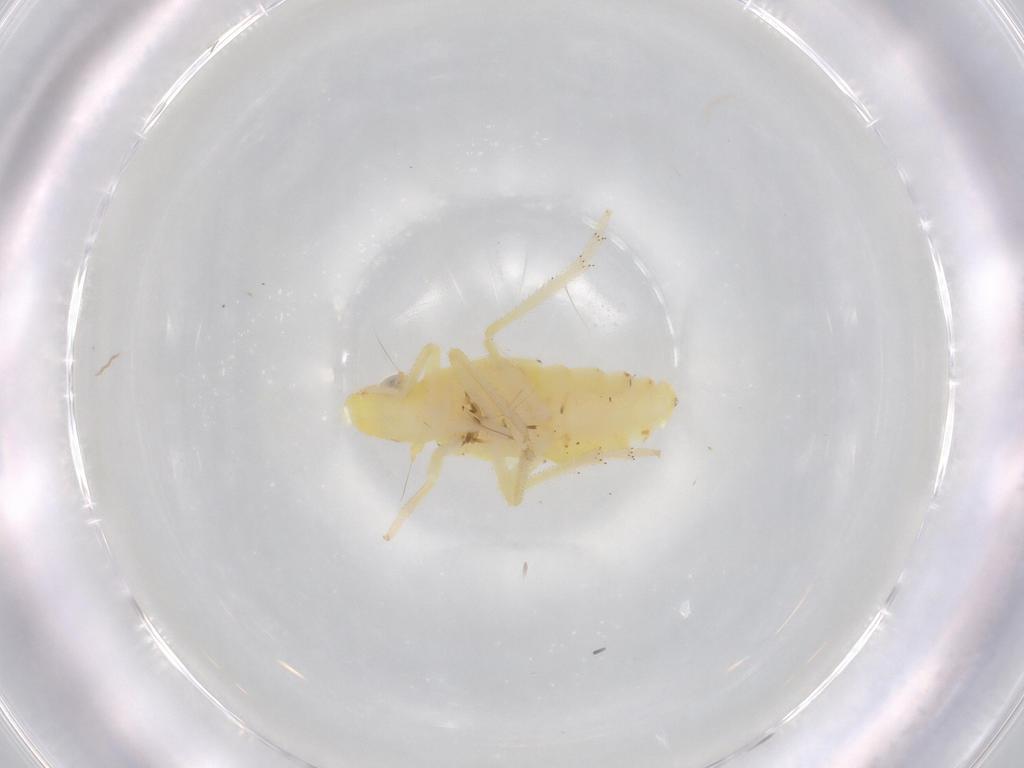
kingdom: Animalia
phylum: Arthropoda
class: Insecta
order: Hemiptera
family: Tropiduchidae
